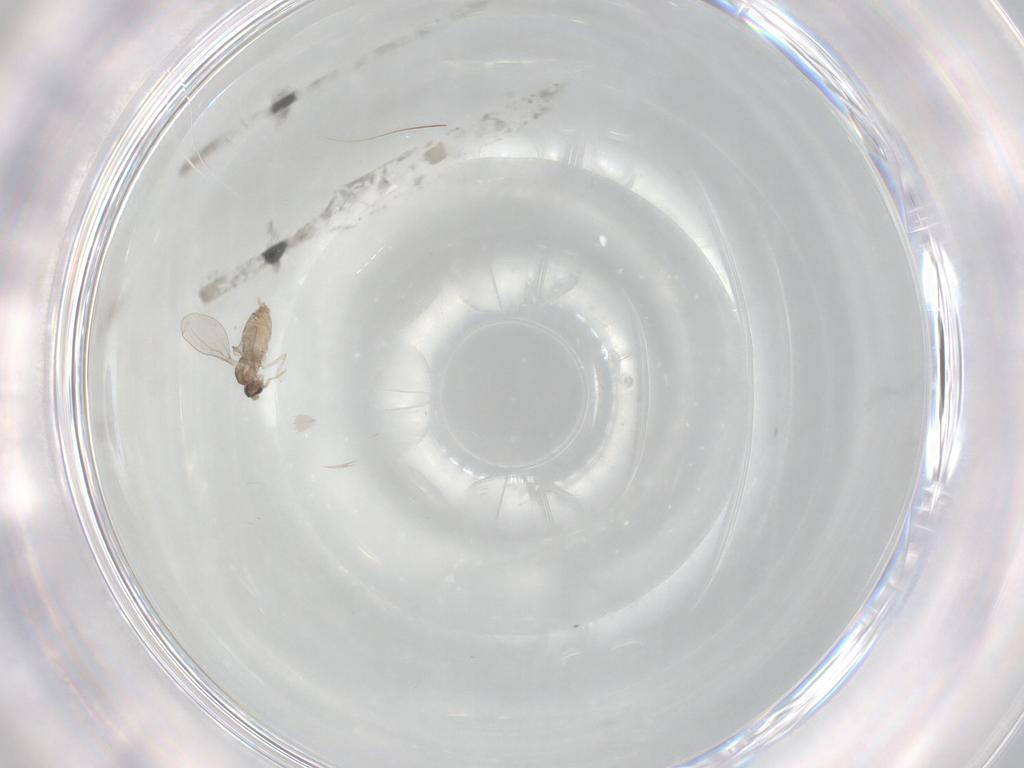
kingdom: Animalia
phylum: Arthropoda
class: Insecta
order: Diptera
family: Cecidomyiidae
